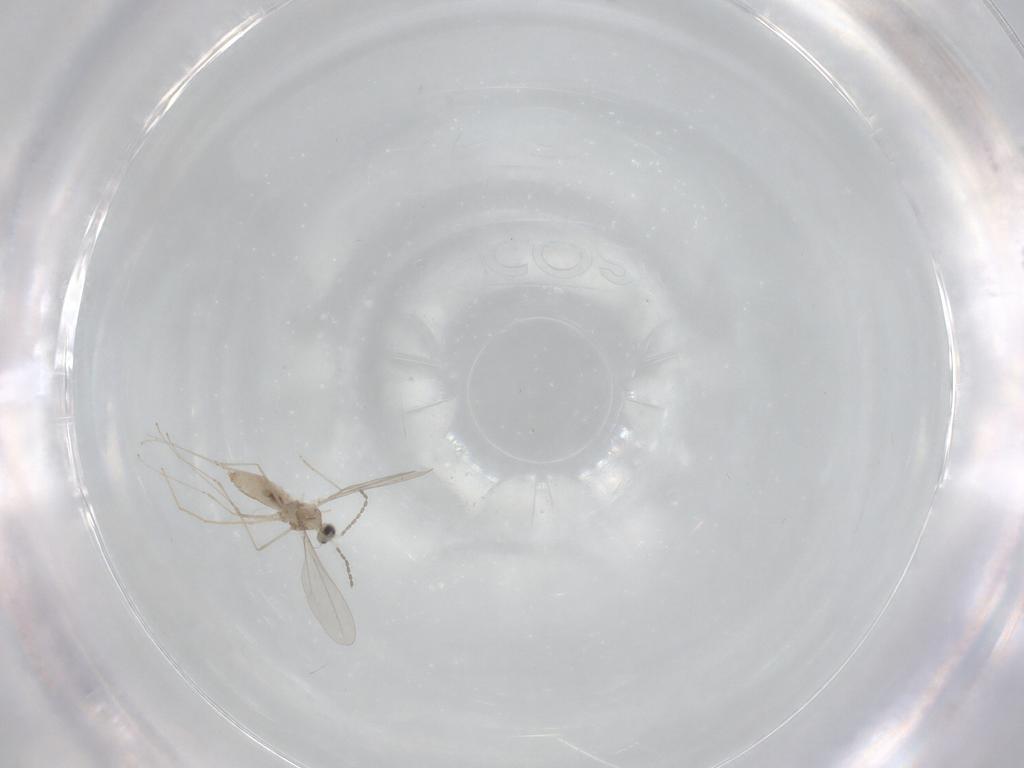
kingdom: Animalia
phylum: Arthropoda
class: Insecta
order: Diptera
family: Cecidomyiidae
